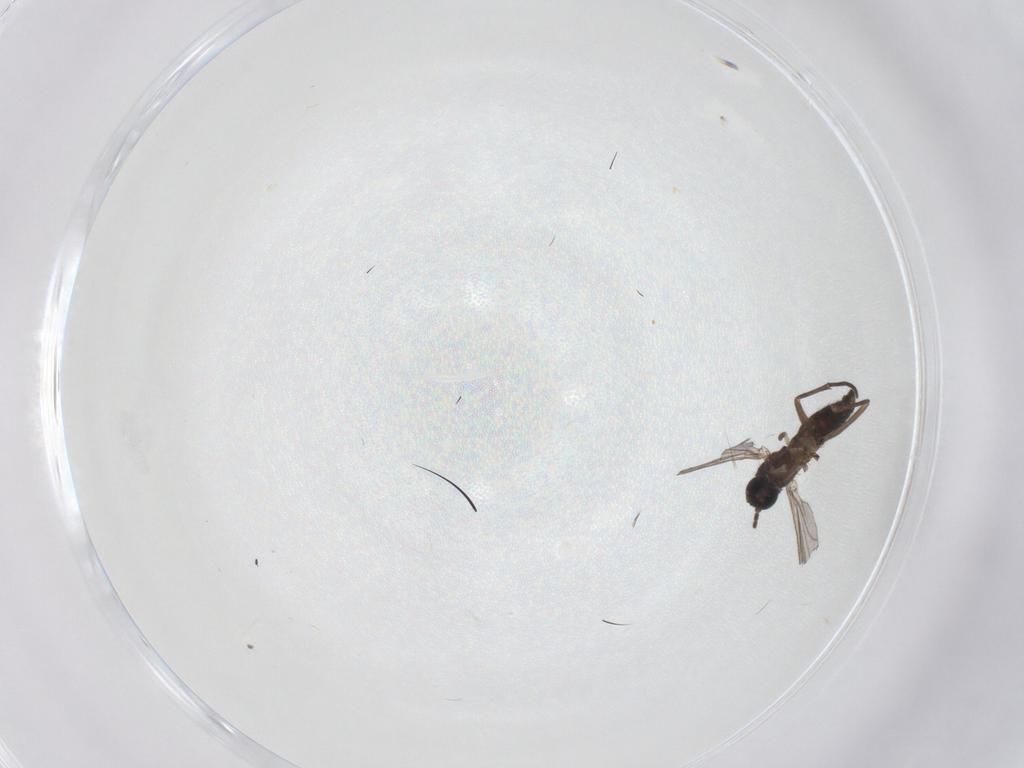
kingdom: Animalia
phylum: Arthropoda
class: Insecta
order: Diptera
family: Sciaridae
